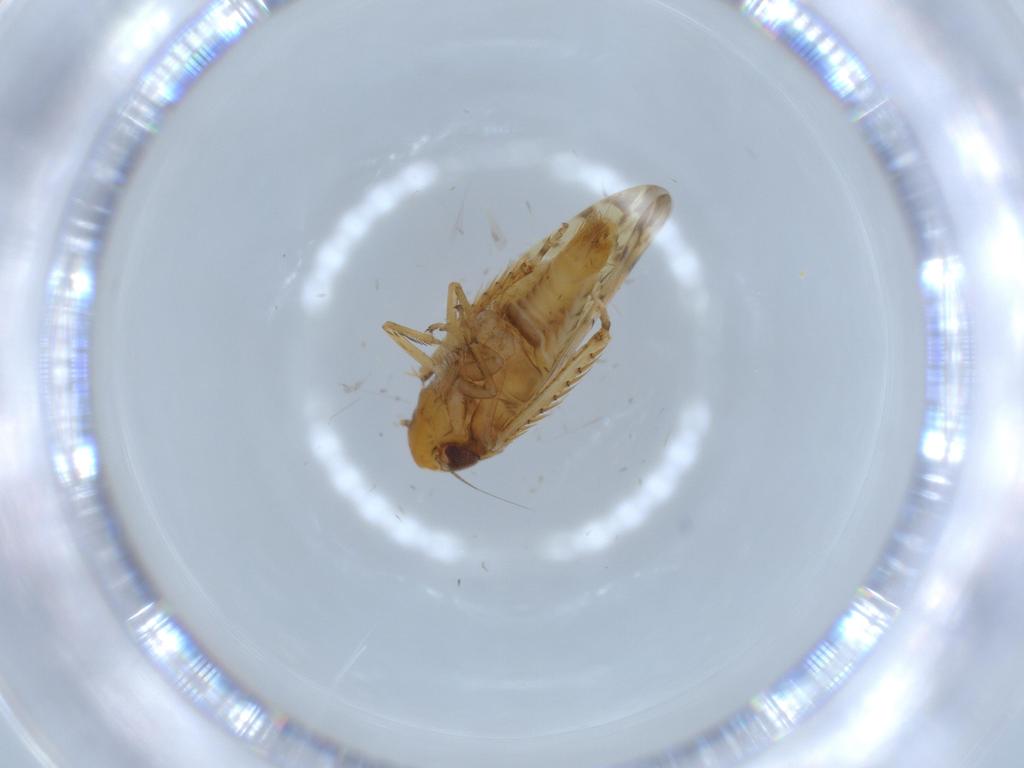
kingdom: Animalia
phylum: Arthropoda
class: Insecta
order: Hemiptera
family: Cicadellidae
